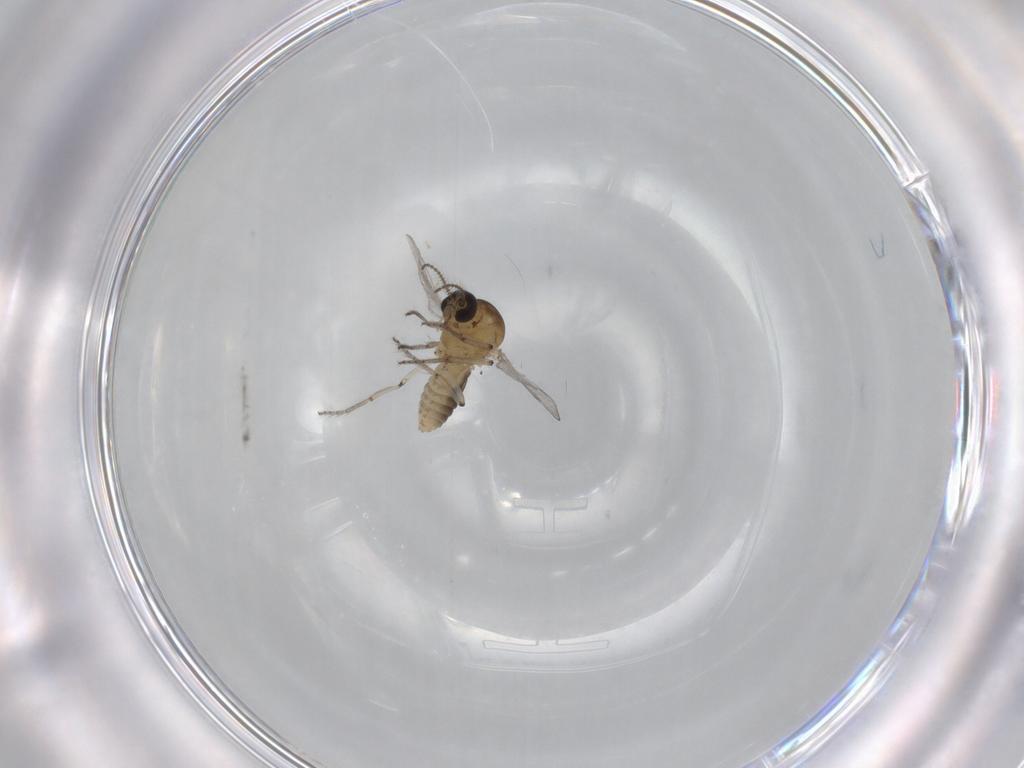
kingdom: Animalia
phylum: Arthropoda
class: Insecta
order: Diptera
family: Ceratopogonidae
